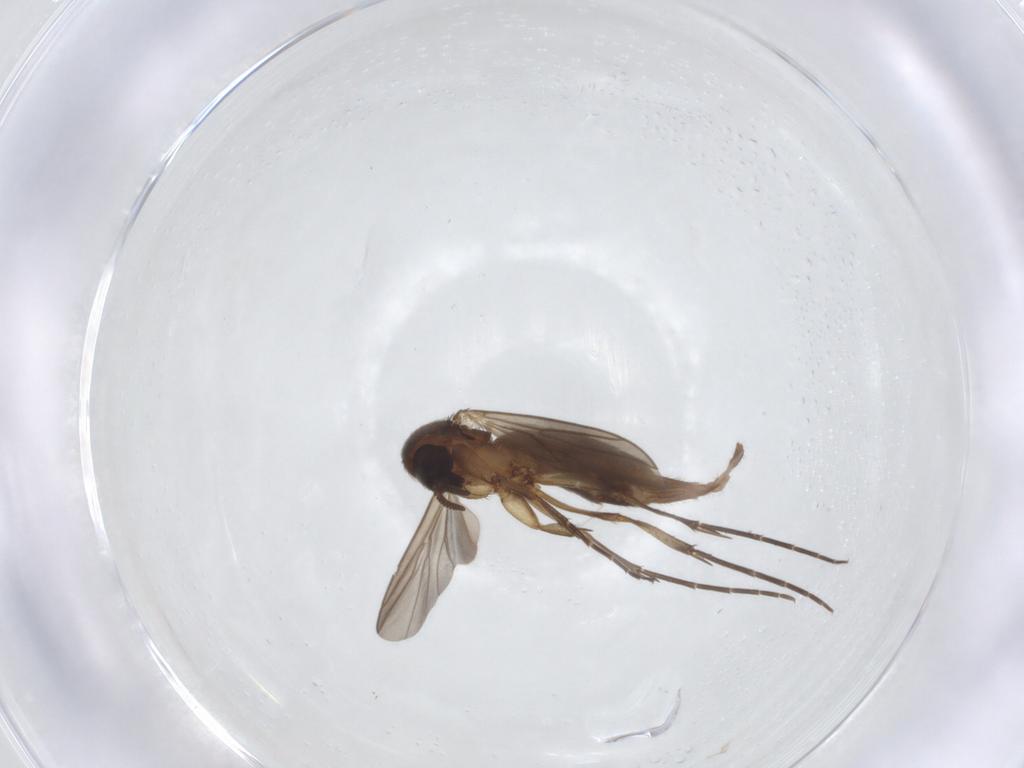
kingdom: Animalia
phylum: Arthropoda
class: Insecta
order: Diptera
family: Mycetophilidae
